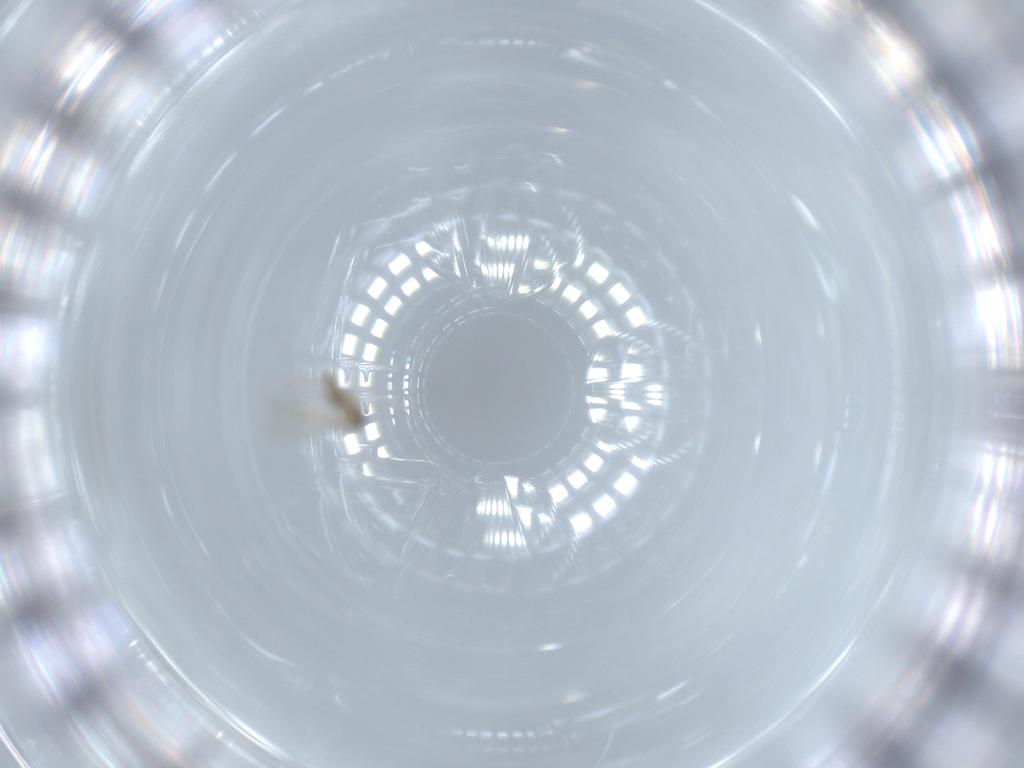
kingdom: Animalia
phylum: Arthropoda
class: Insecta
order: Diptera
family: Cecidomyiidae
